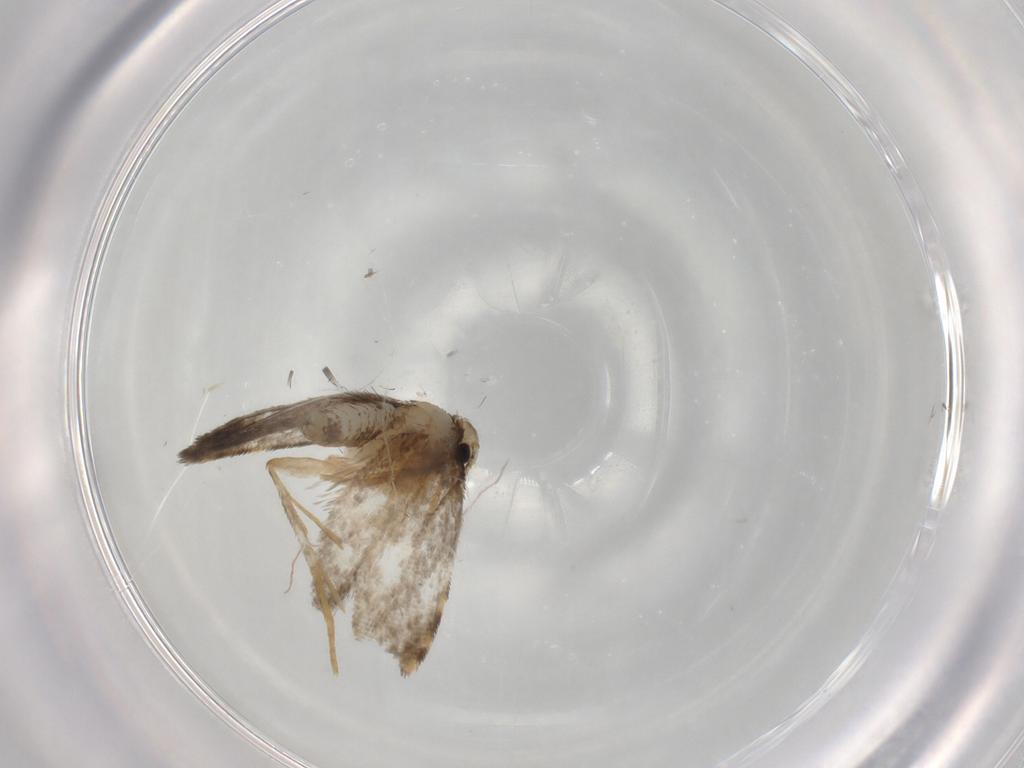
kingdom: Animalia
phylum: Arthropoda
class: Insecta
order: Lepidoptera
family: Psychidae
